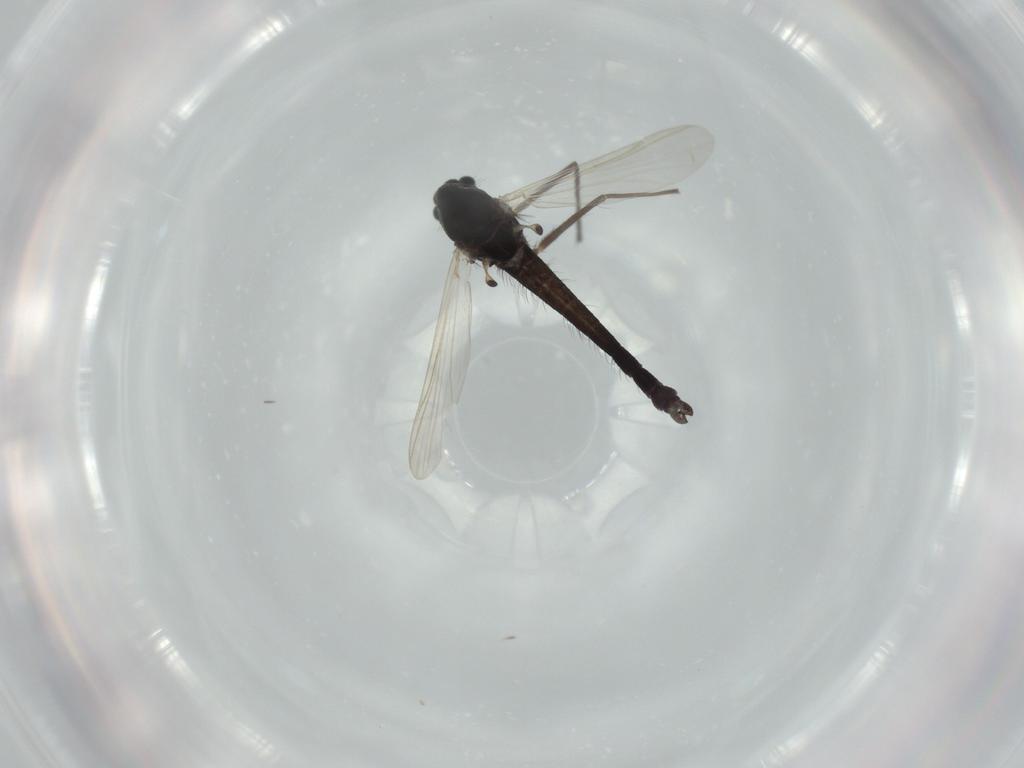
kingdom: Animalia
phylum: Arthropoda
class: Insecta
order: Diptera
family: Chironomidae
